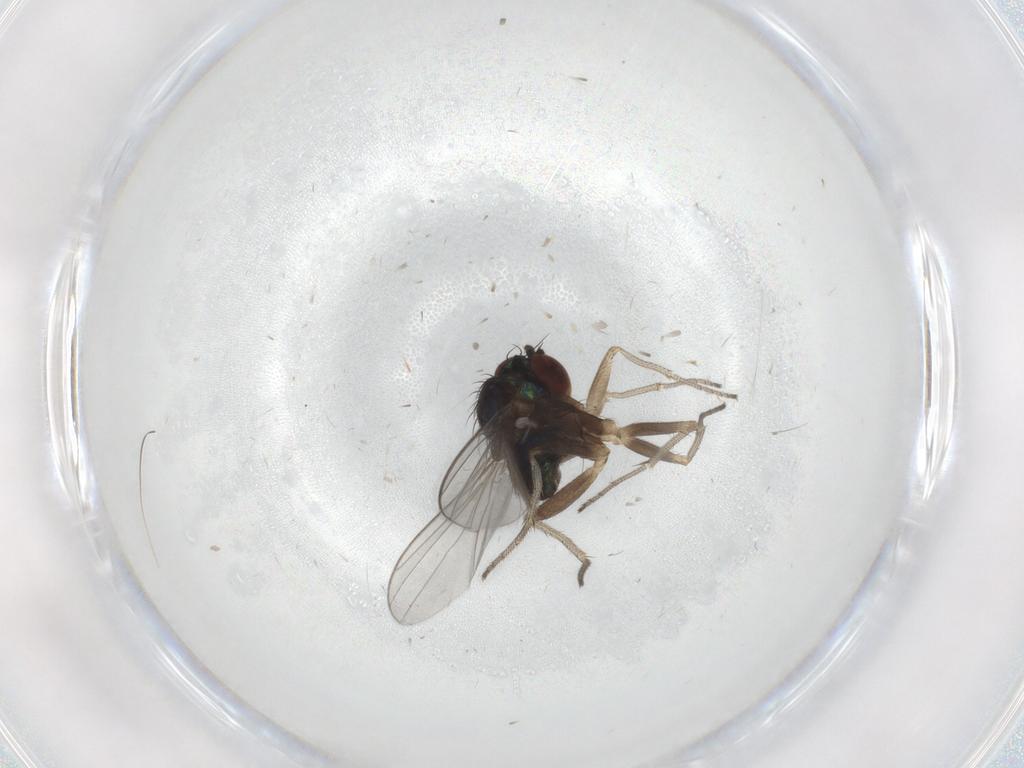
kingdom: Animalia
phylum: Arthropoda
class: Insecta
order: Diptera
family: Dolichopodidae
